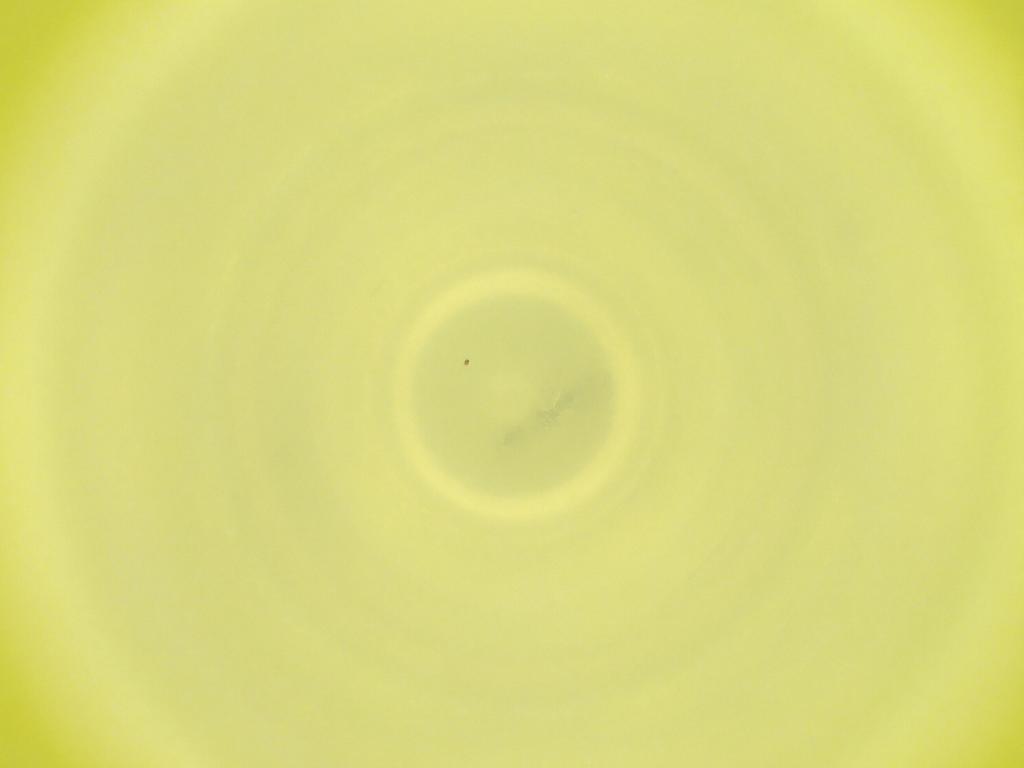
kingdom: Animalia
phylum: Arthropoda
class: Insecta
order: Diptera
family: Cecidomyiidae
